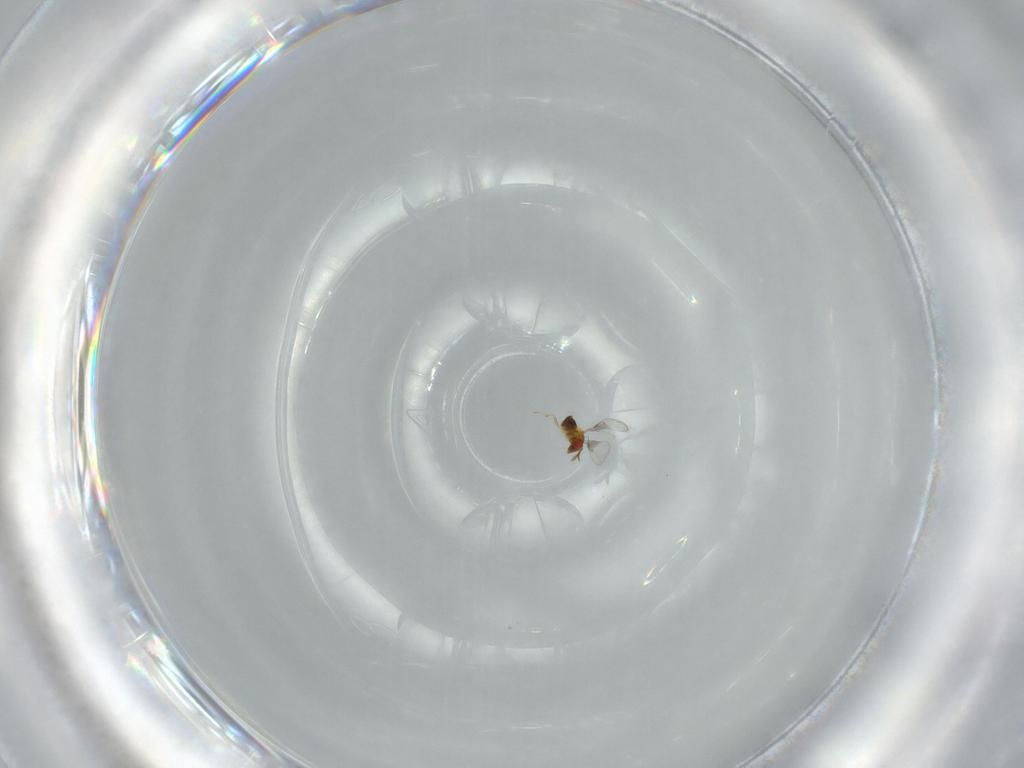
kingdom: Animalia
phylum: Arthropoda
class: Insecta
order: Hymenoptera
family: Trichogrammatidae
